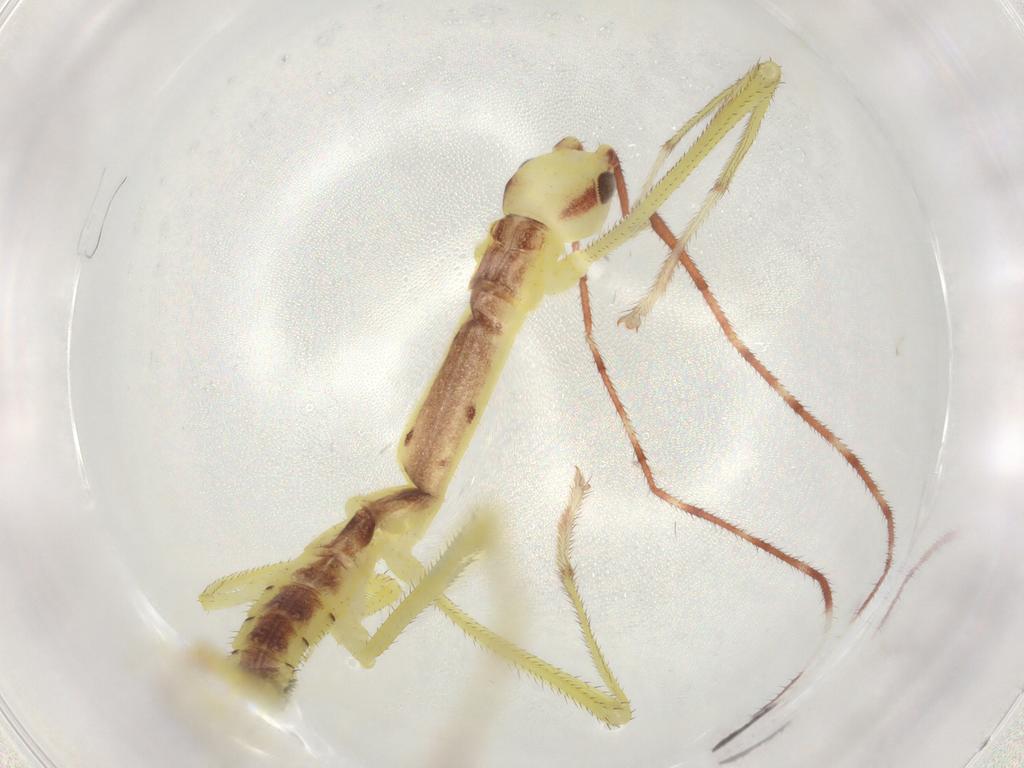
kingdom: Animalia
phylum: Arthropoda
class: Insecta
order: Phasmida
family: Agathemeridae
